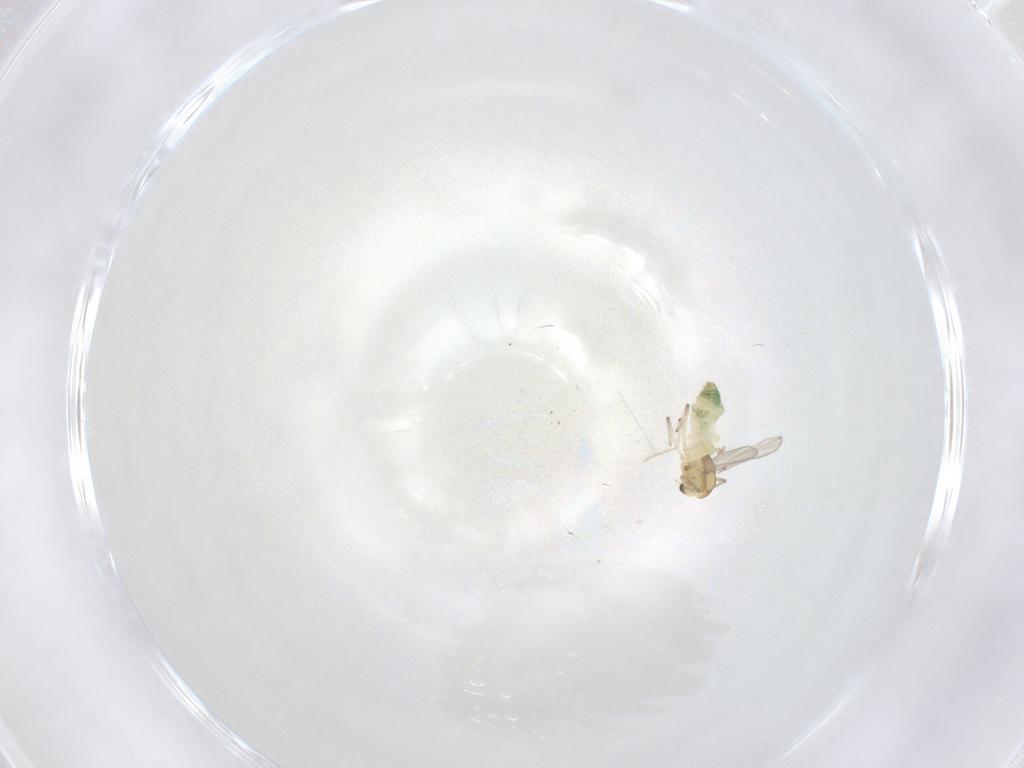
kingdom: Animalia
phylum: Arthropoda
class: Insecta
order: Diptera
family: Chironomidae
